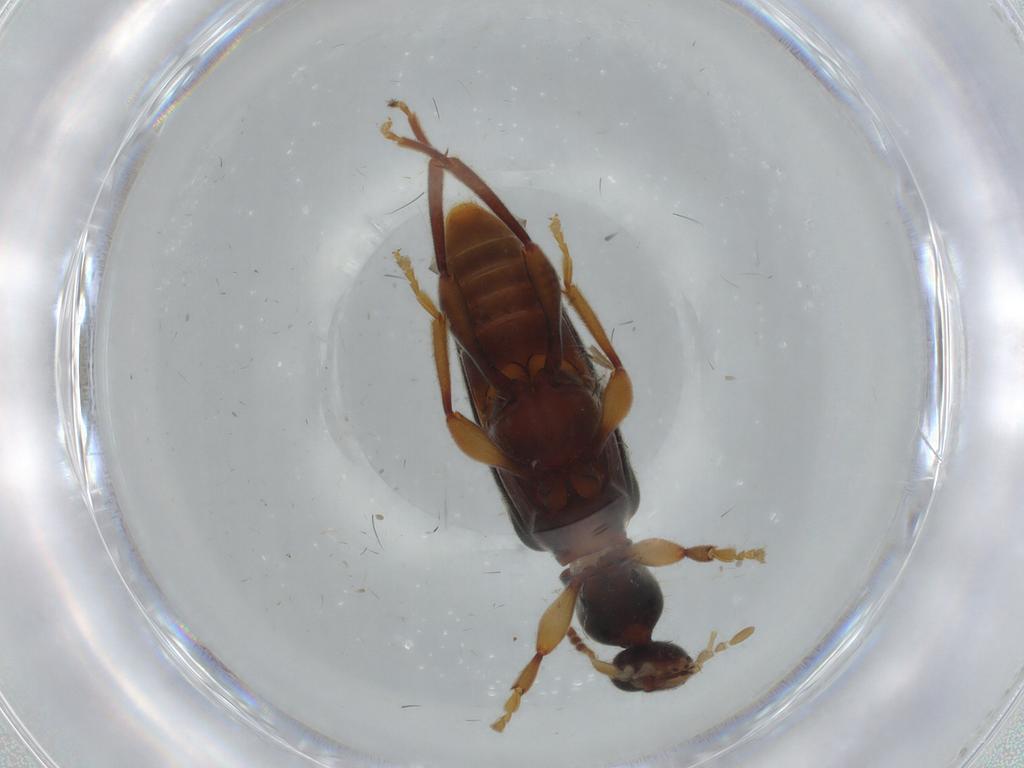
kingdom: Animalia
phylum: Arthropoda
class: Insecta
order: Coleoptera
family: Anthicidae
